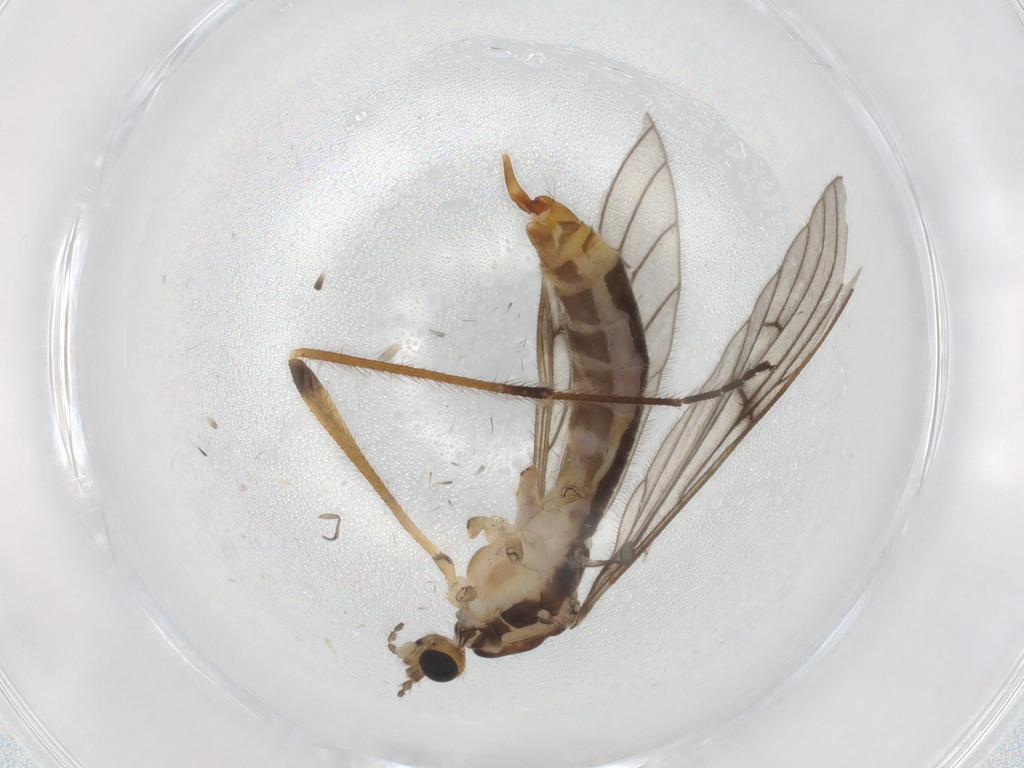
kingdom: Animalia
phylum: Arthropoda
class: Insecta
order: Diptera
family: Limoniidae
